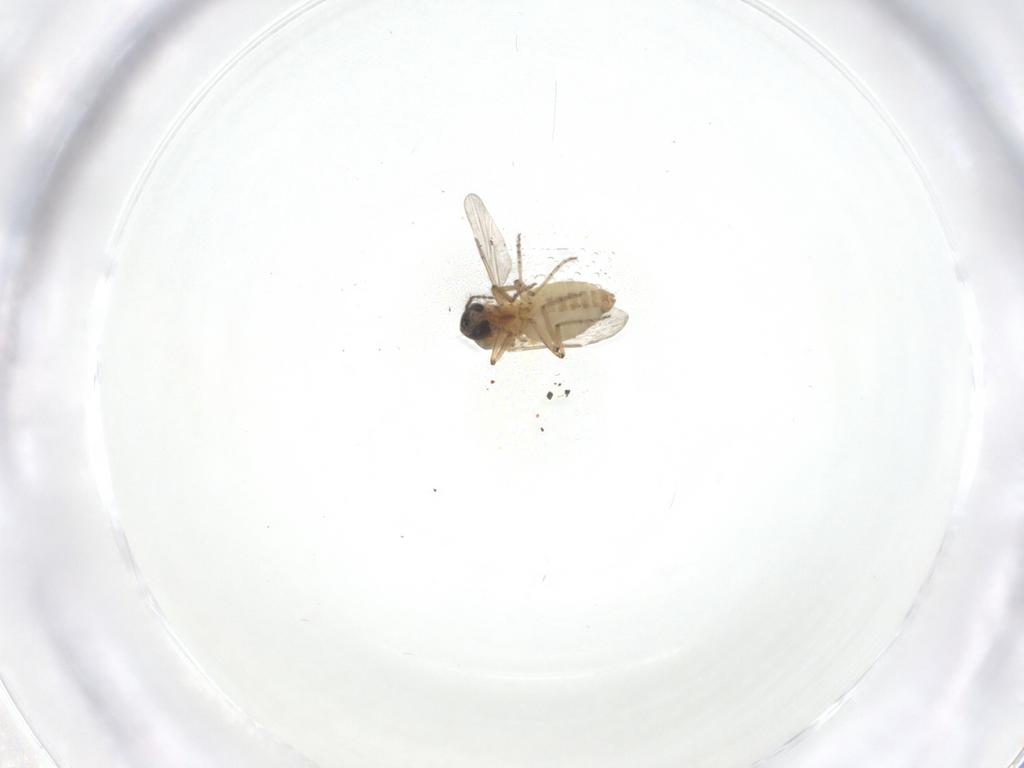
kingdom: Animalia
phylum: Arthropoda
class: Insecta
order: Diptera
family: Ceratopogonidae
